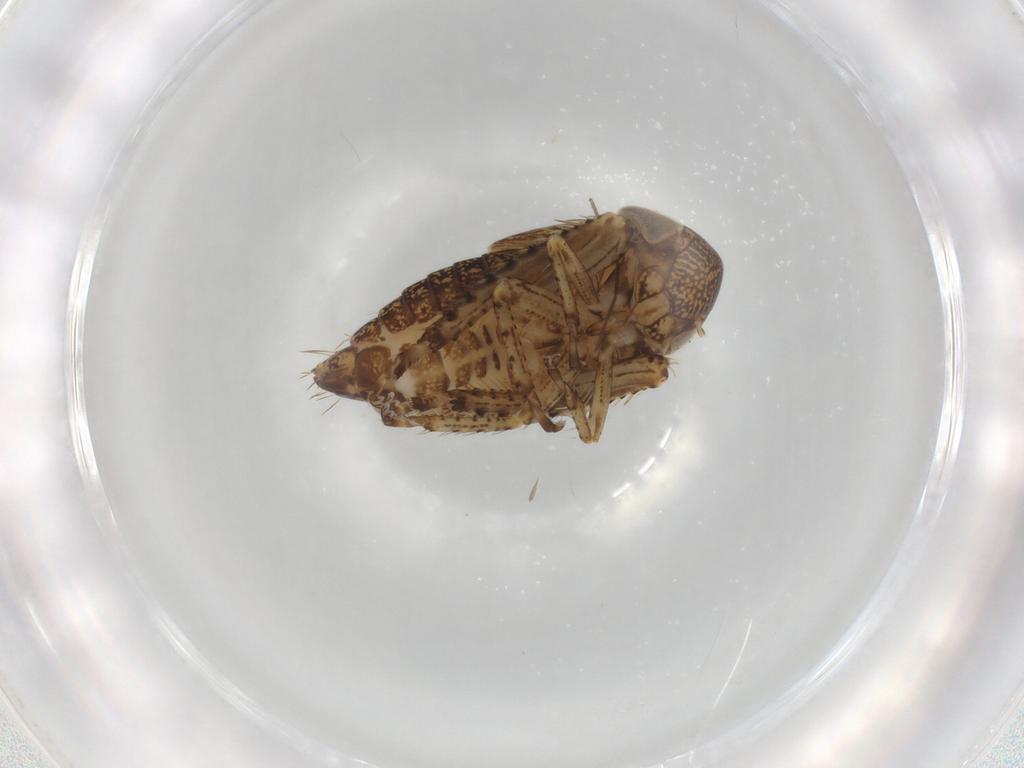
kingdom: Animalia
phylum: Arthropoda
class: Insecta
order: Hemiptera
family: Cicadellidae
